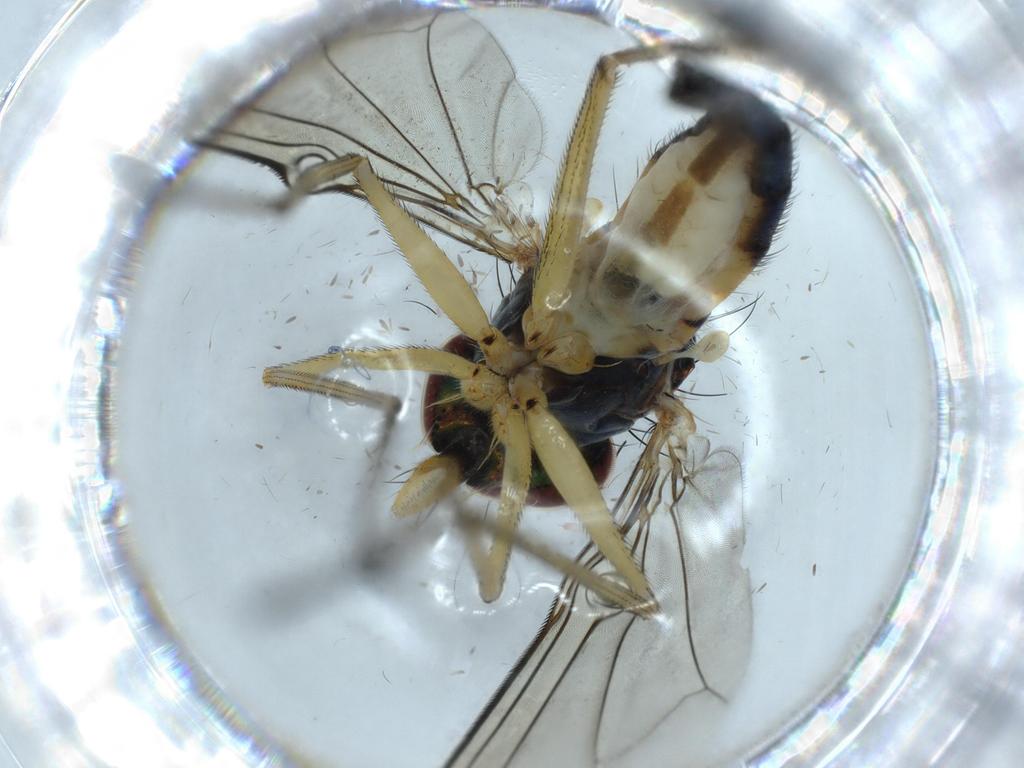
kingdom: Animalia
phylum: Arthropoda
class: Insecta
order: Diptera
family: Dolichopodidae
